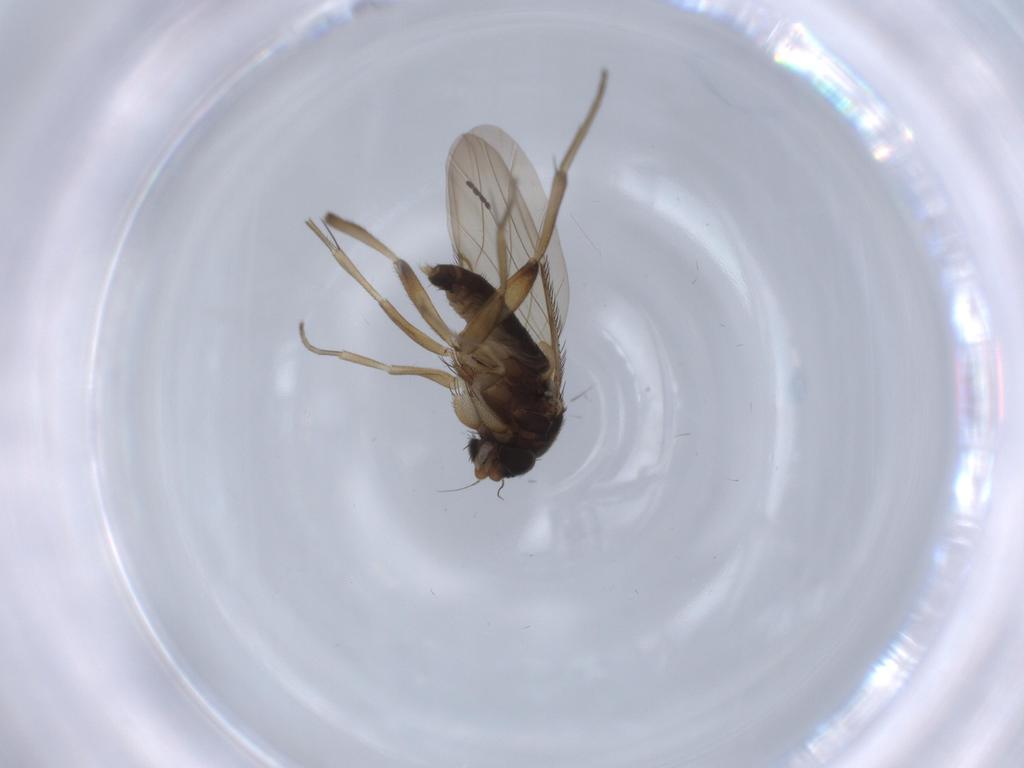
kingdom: Animalia
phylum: Arthropoda
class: Insecta
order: Diptera
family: Phoridae
